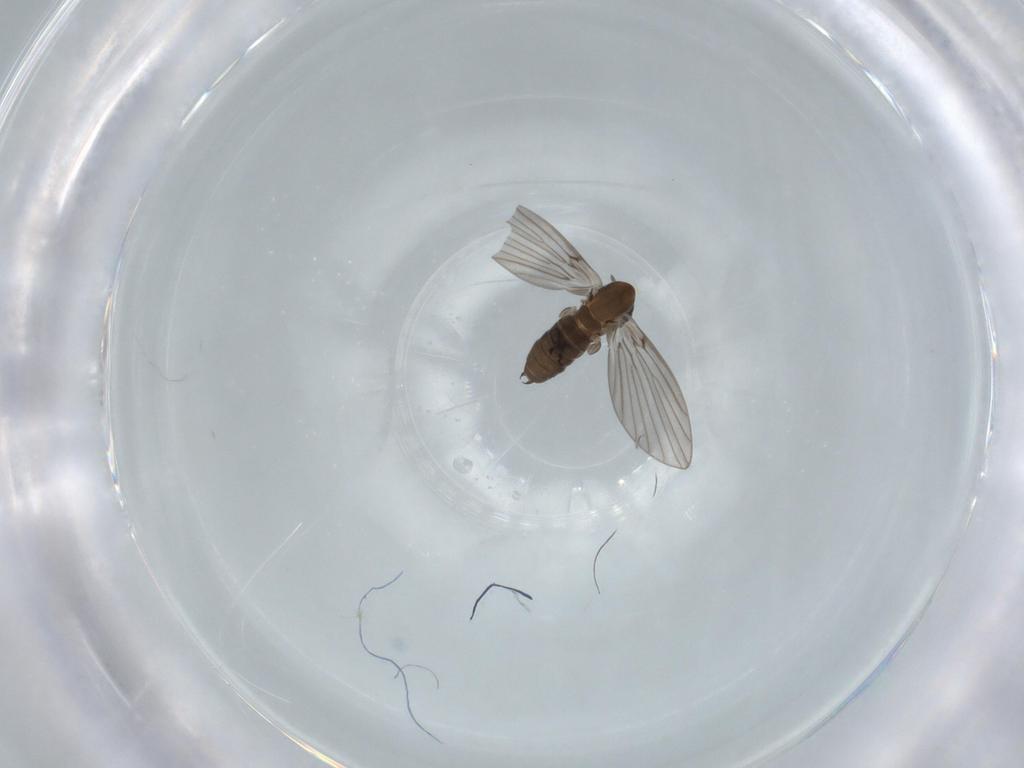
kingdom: Animalia
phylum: Arthropoda
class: Insecta
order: Diptera
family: Psychodidae
